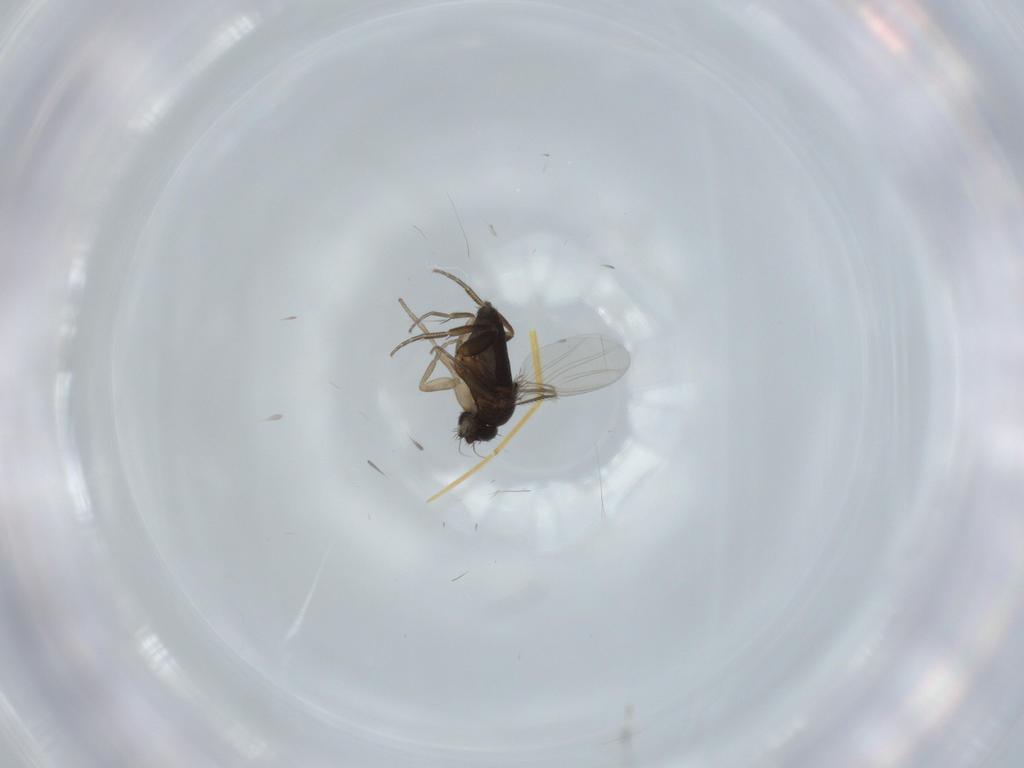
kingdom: Animalia
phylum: Arthropoda
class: Insecta
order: Diptera
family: Phoridae
